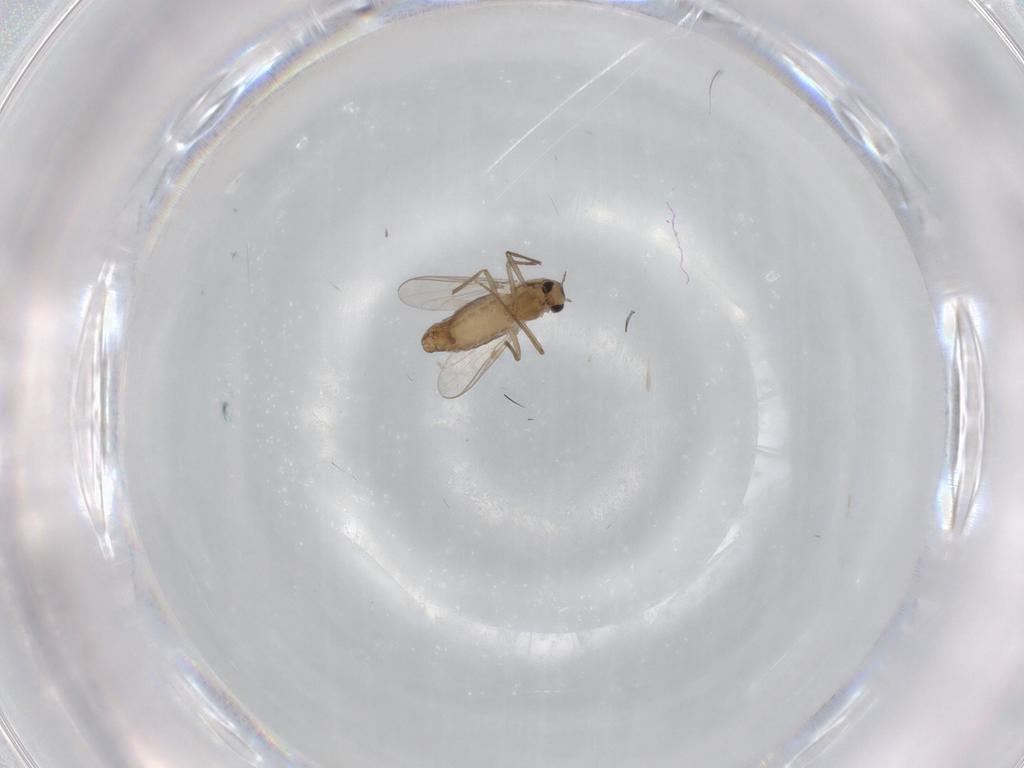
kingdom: Animalia
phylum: Arthropoda
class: Insecta
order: Diptera
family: Chironomidae
